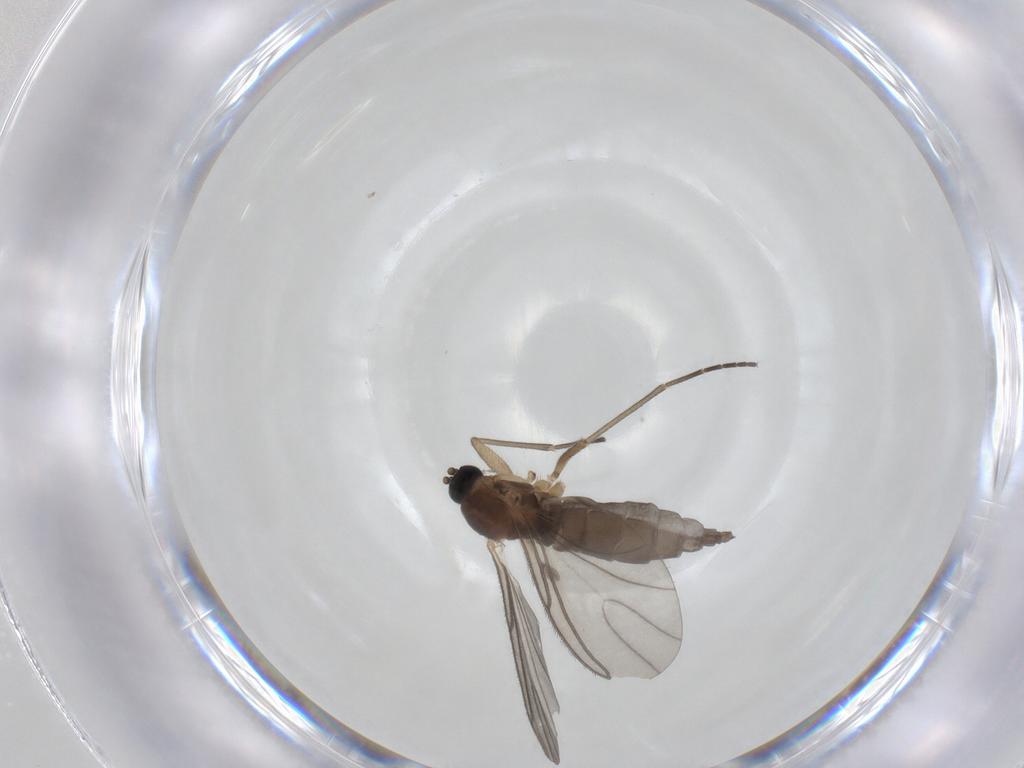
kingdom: Animalia
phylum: Arthropoda
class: Insecta
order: Diptera
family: Sciaridae
